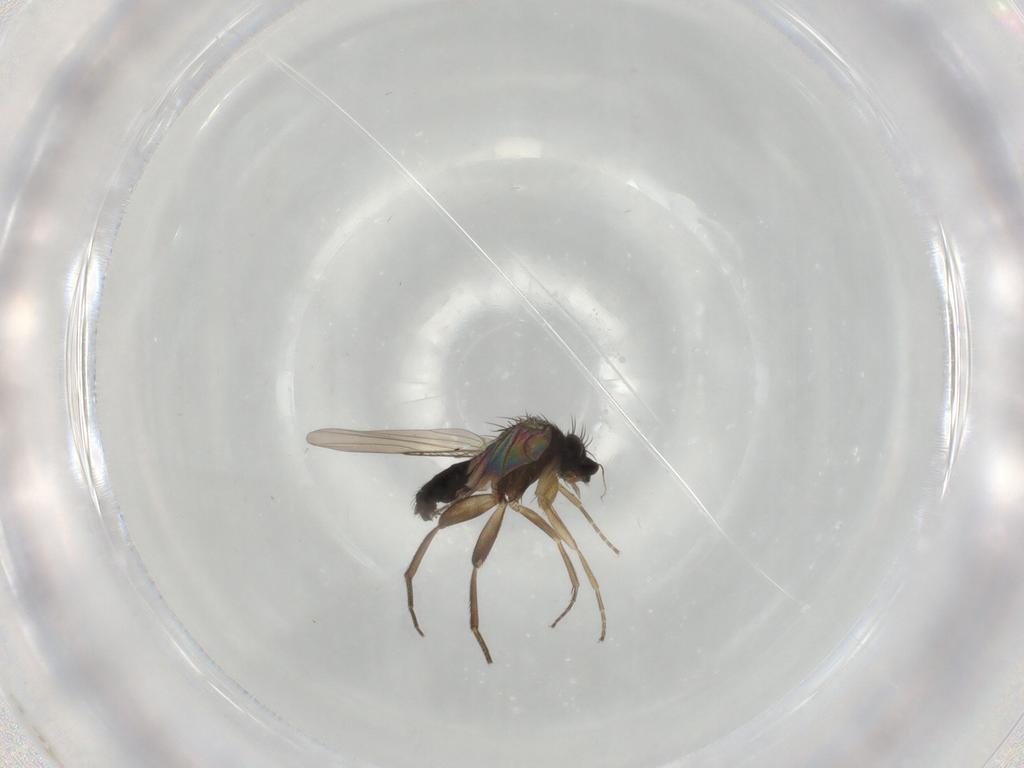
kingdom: Animalia
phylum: Arthropoda
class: Insecta
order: Diptera
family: Phoridae
